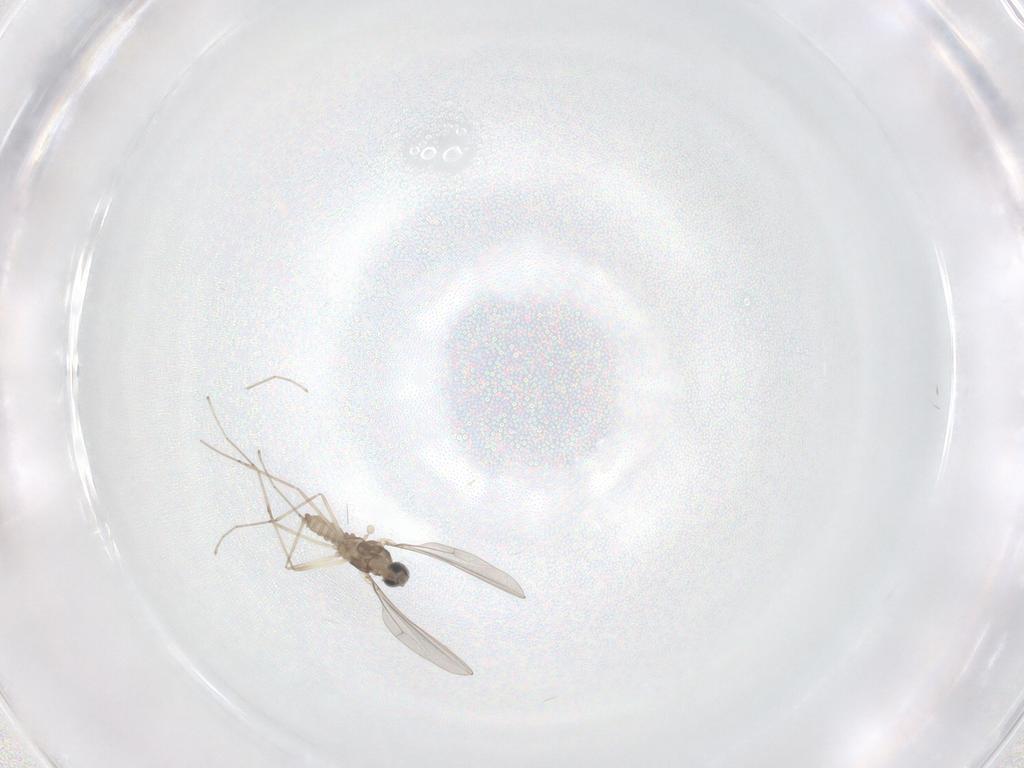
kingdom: Animalia
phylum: Arthropoda
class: Insecta
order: Diptera
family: Cecidomyiidae
